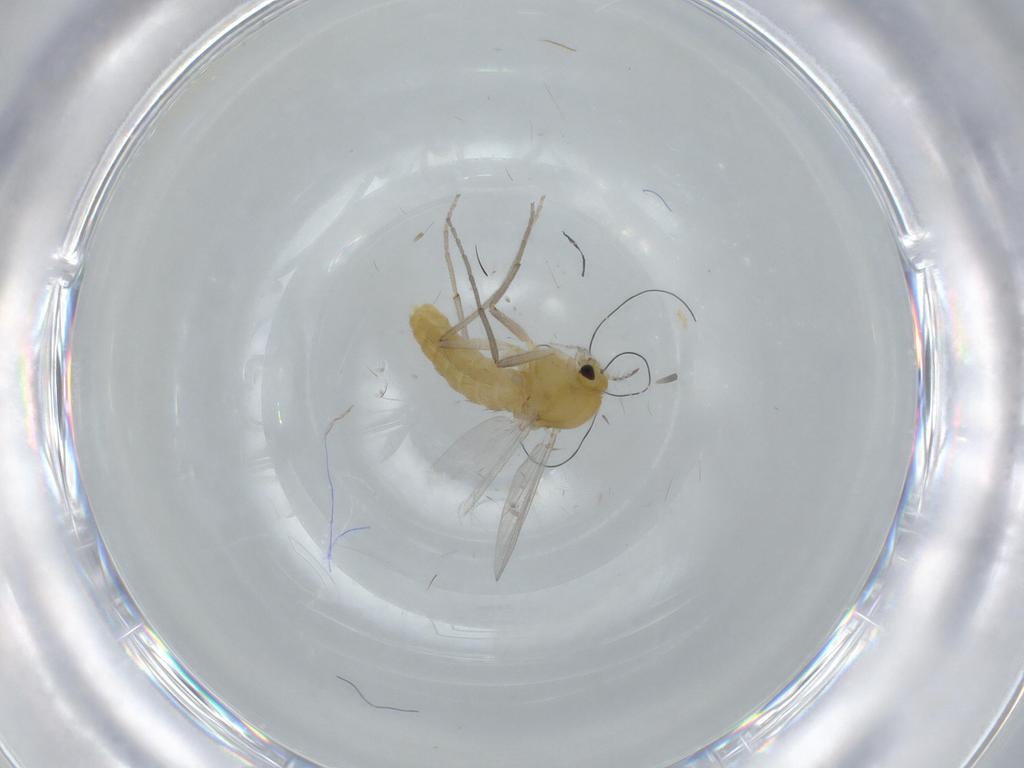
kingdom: Animalia
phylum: Arthropoda
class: Insecta
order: Diptera
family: Chironomidae
